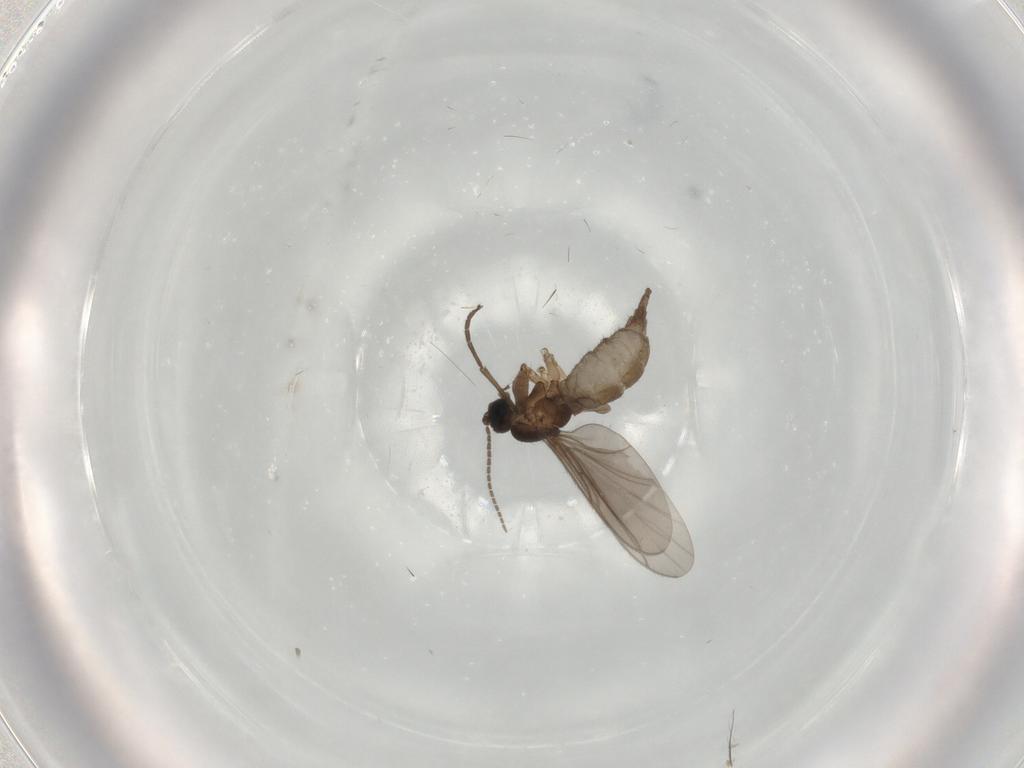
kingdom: Animalia
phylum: Arthropoda
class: Insecta
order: Diptera
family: Sciaridae
